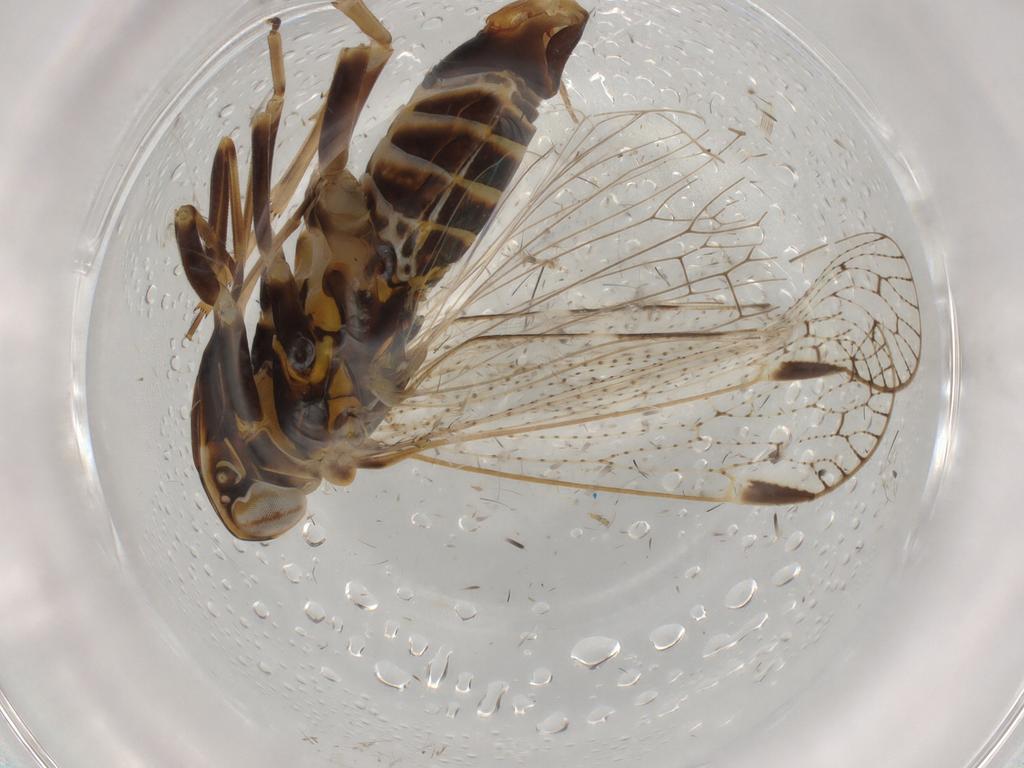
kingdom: Animalia
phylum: Arthropoda
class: Insecta
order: Hemiptera
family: Cixiidae
